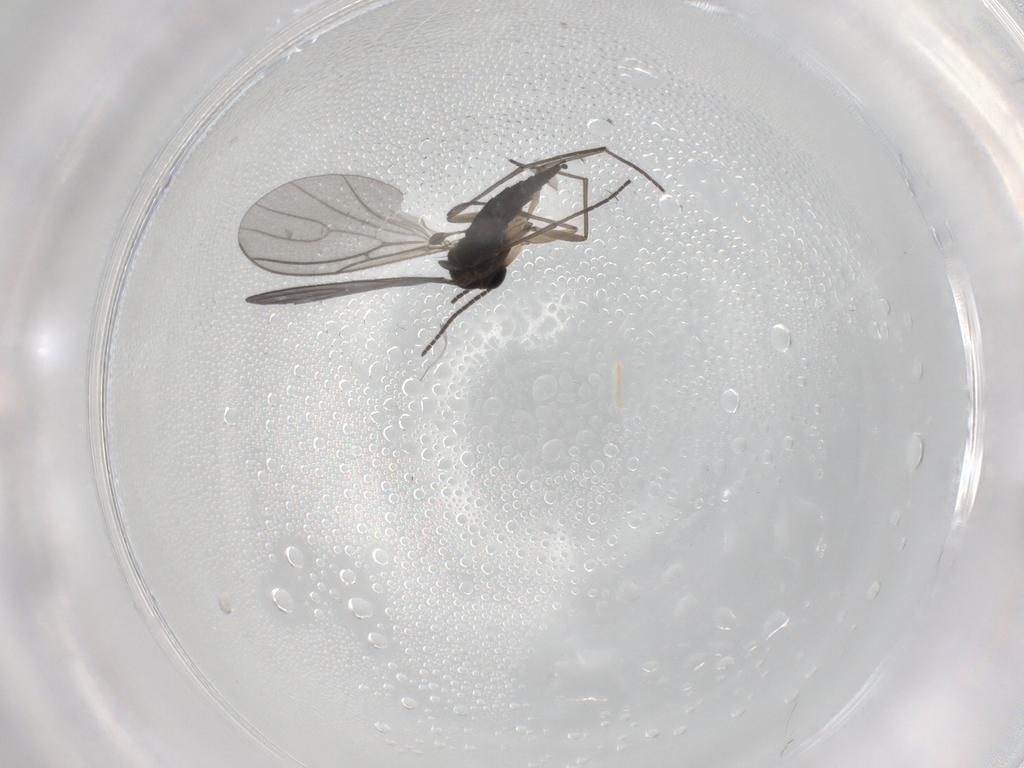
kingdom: Animalia
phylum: Arthropoda
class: Insecta
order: Diptera
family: Sciaridae
